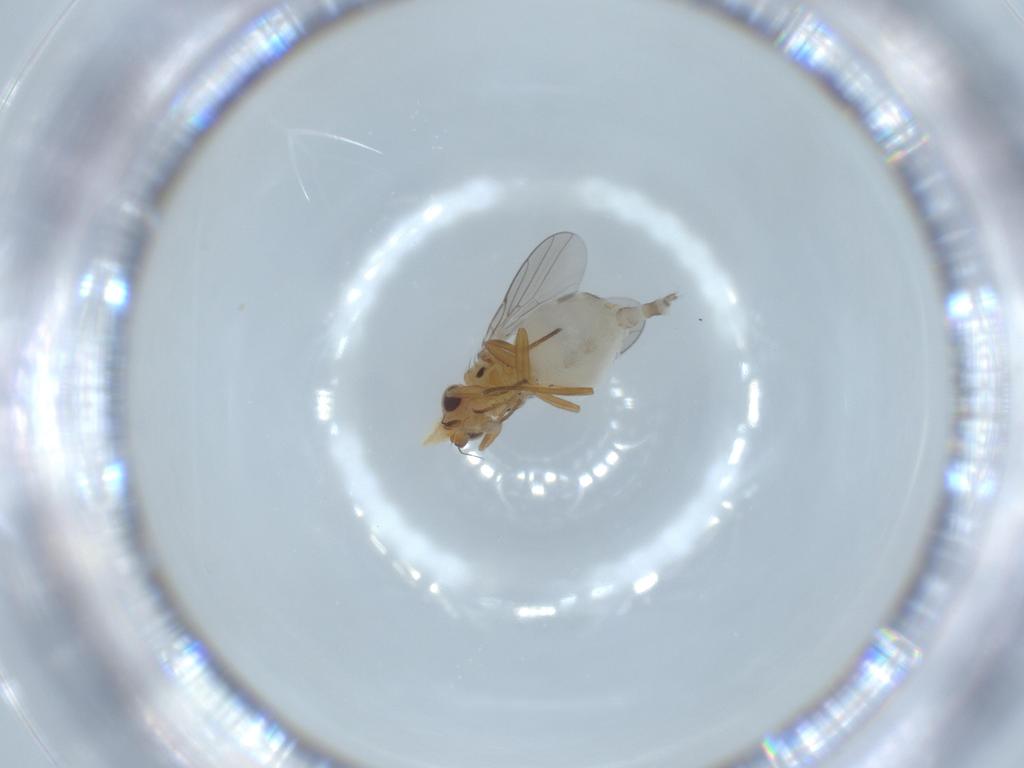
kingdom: Animalia
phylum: Arthropoda
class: Insecta
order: Diptera
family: Chloropidae
